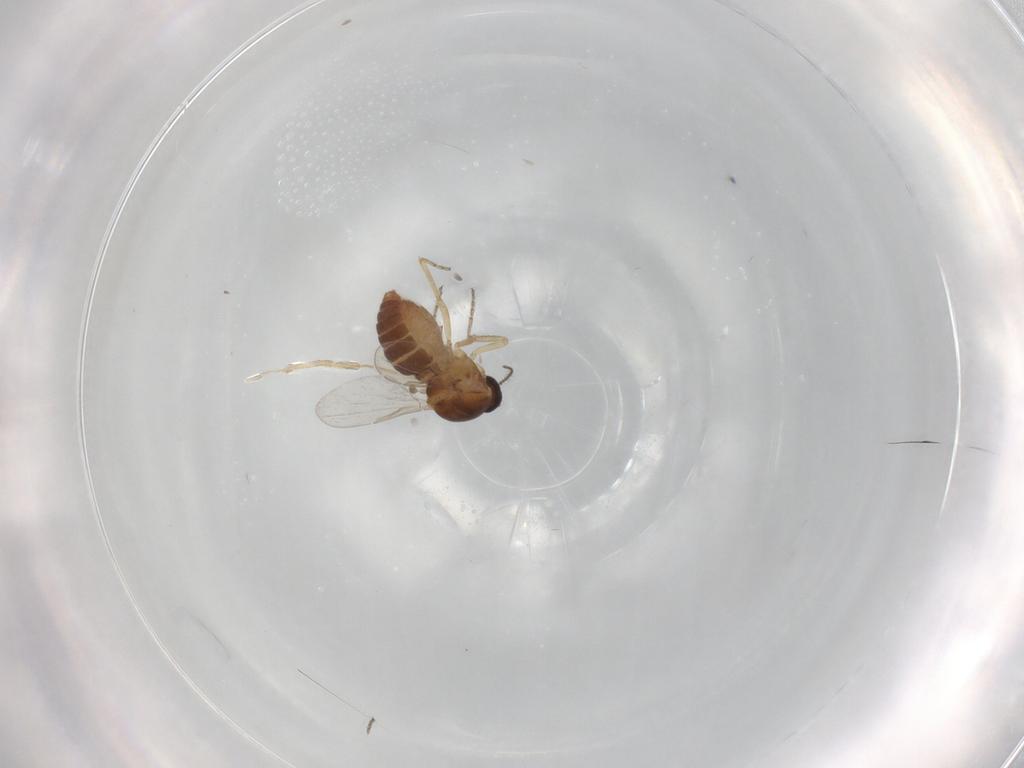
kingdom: Animalia
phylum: Arthropoda
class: Insecta
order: Diptera
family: Ceratopogonidae
